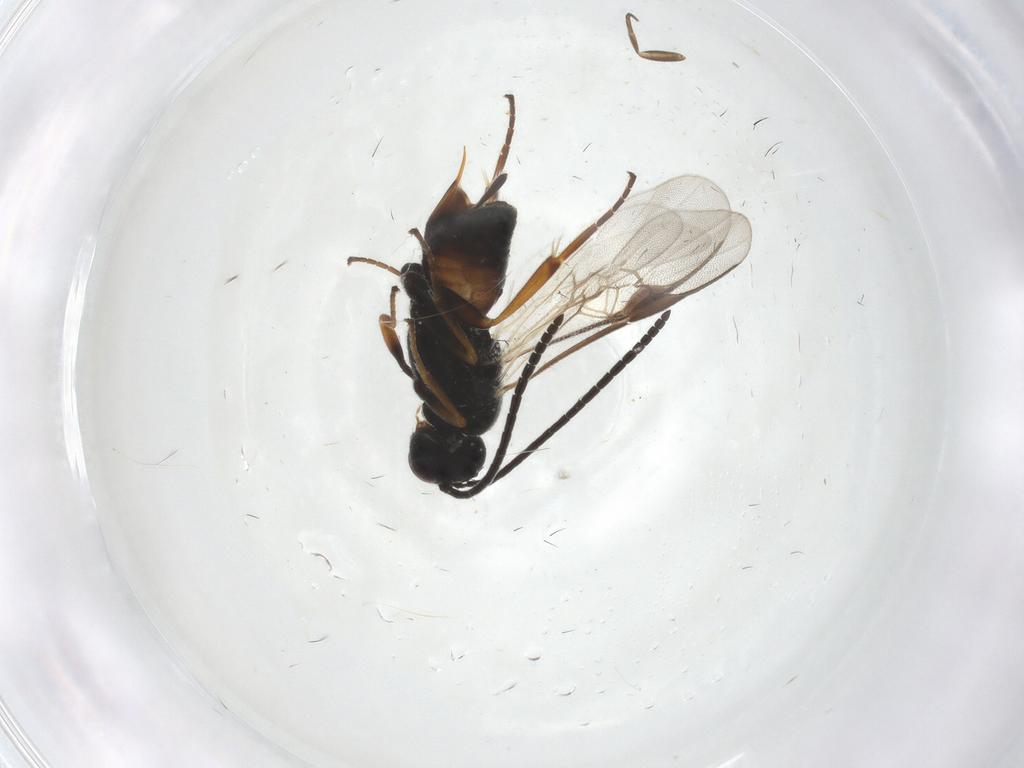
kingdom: Animalia
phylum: Arthropoda
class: Insecta
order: Hymenoptera
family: Braconidae
